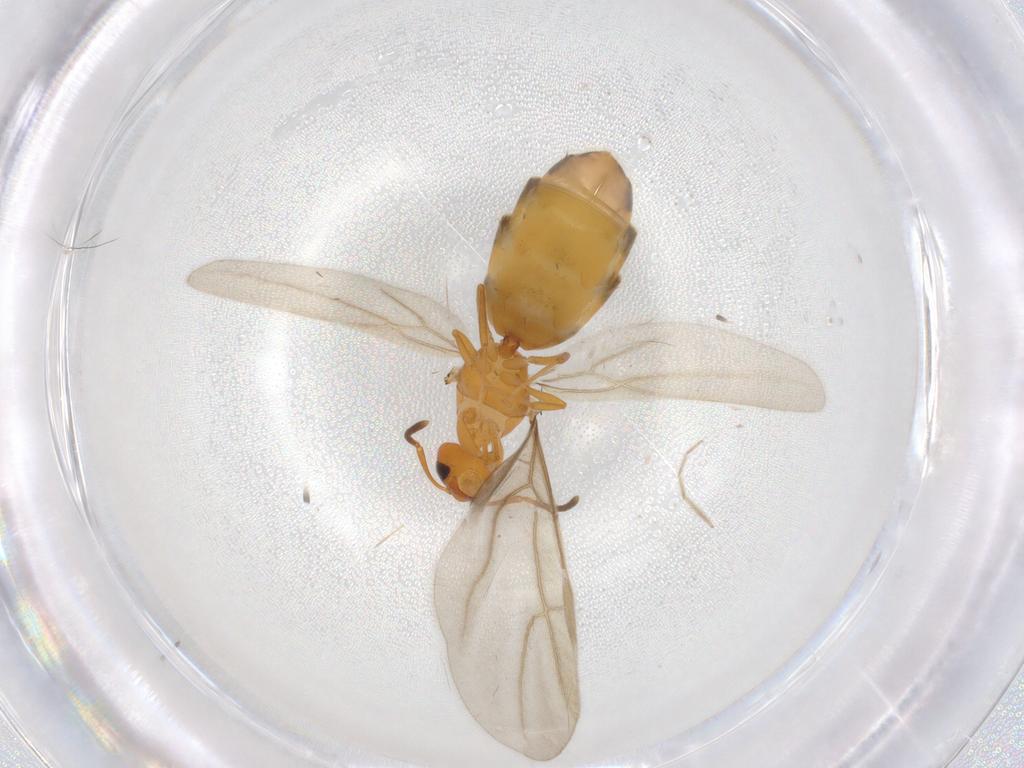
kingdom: Animalia
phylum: Arthropoda
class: Insecta
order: Hymenoptera
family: Formicidae
